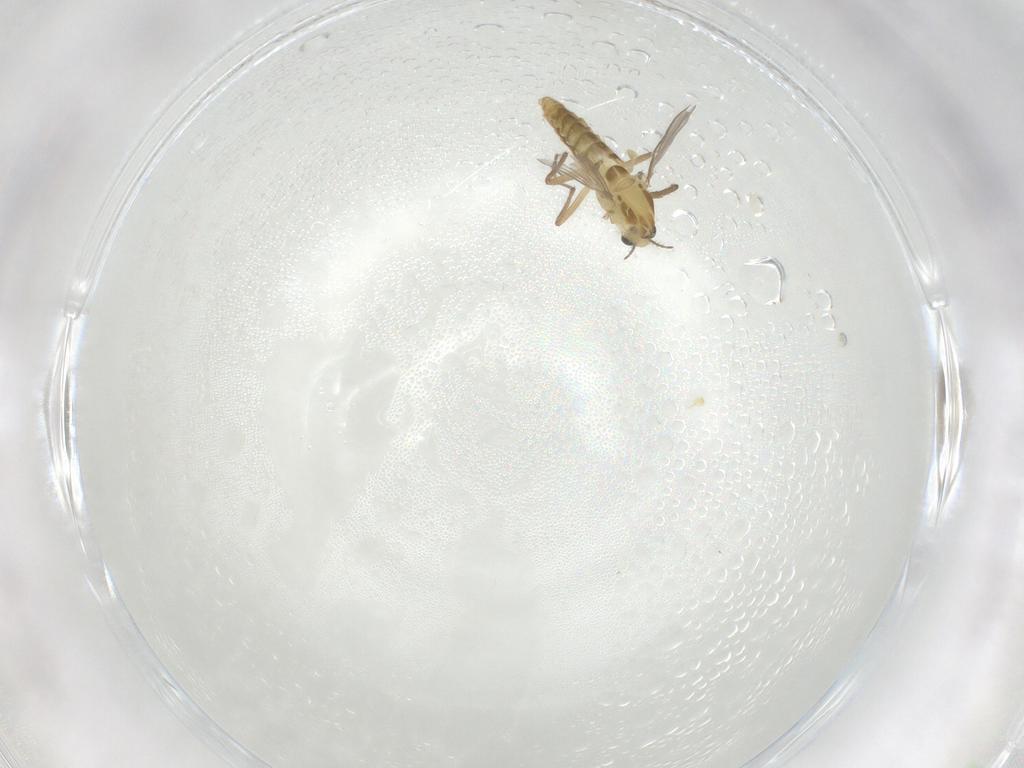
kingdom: Animalia
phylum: Arthropoda
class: Insecta
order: Diptera
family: Chironomidae
